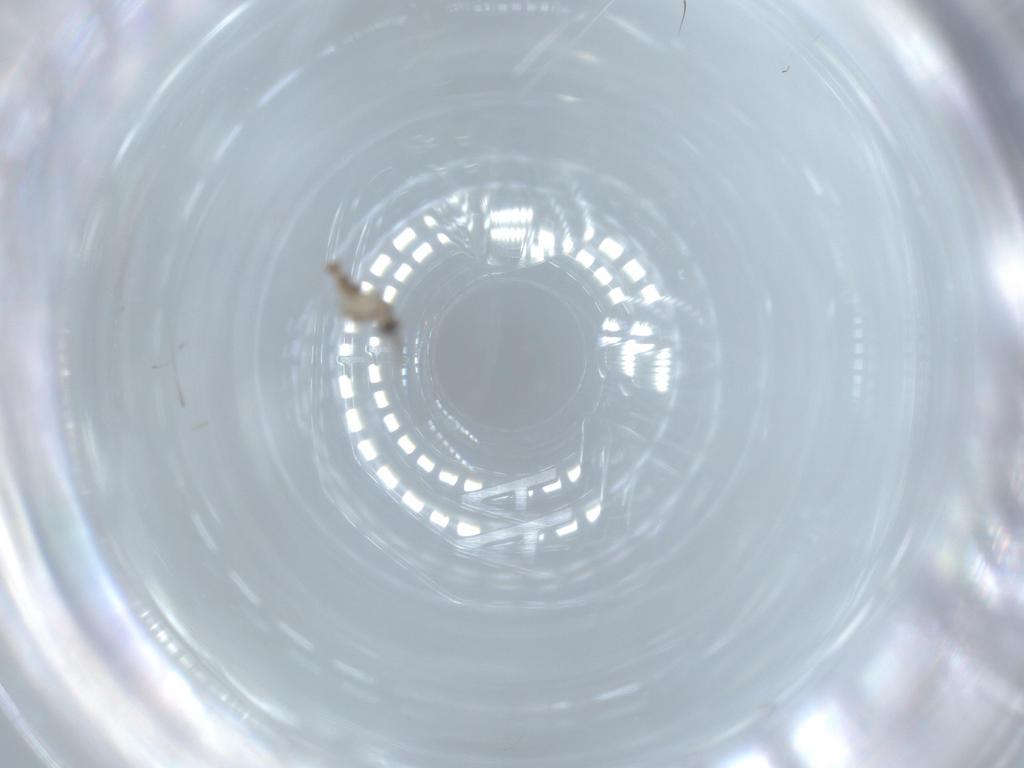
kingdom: Animalia
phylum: Arthropoda
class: Insecta
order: Diptera
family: Cecidomyiidae
